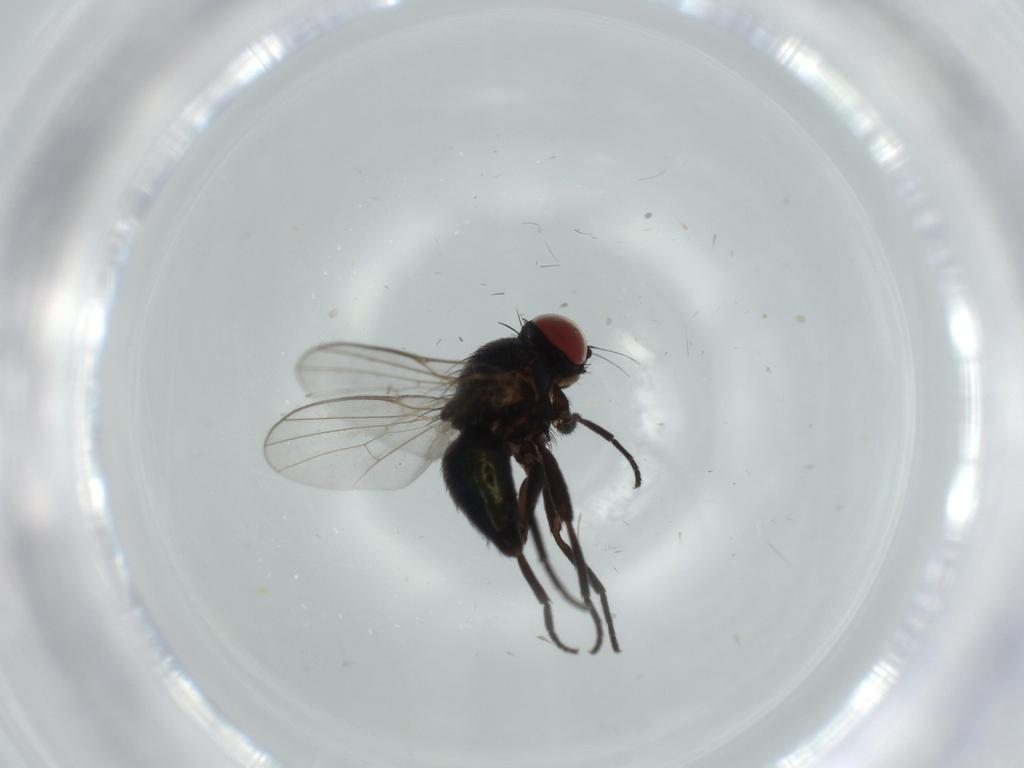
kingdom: Animalia
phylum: Arthropoda
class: Insecta
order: Diptera
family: Agromyzidae
